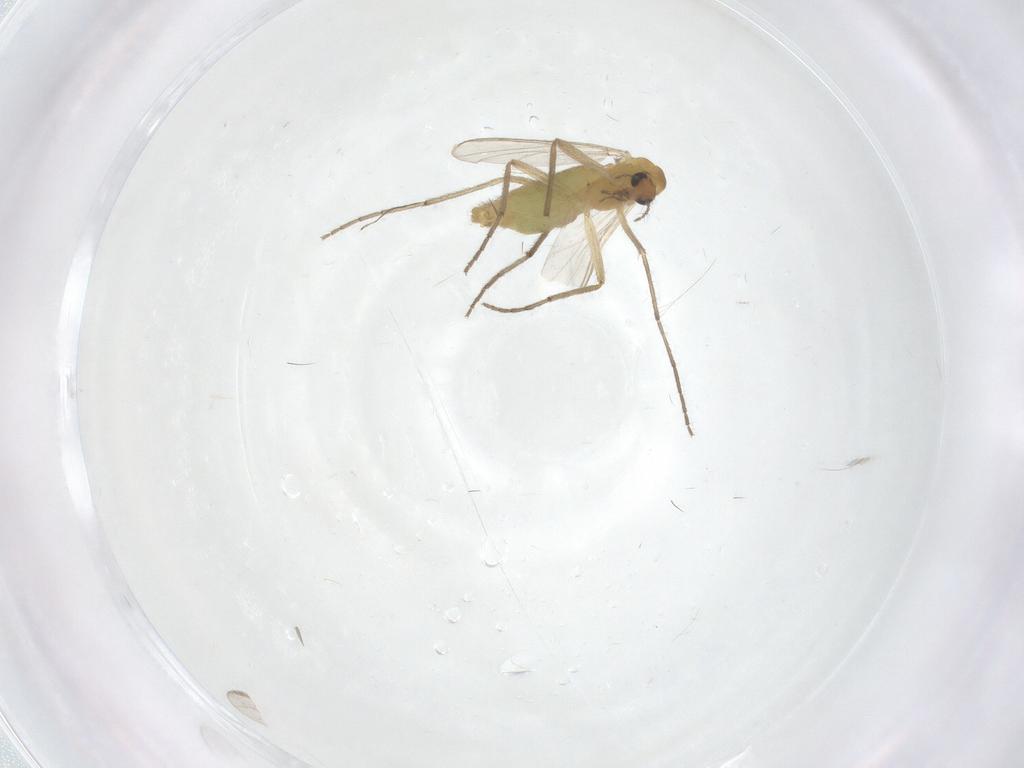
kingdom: Animalia
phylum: Arthropoda
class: Insecta
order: Diptera
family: Chironomidae
